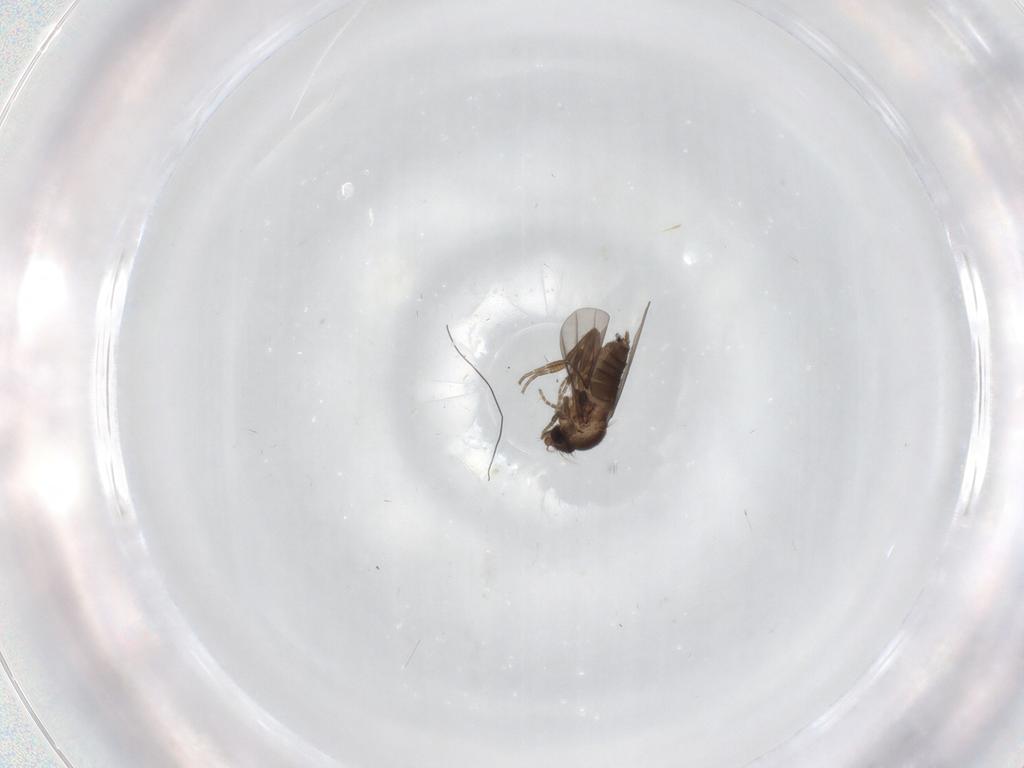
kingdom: Animalia
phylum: Arthropoda
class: Insecta
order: Diptera
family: Phoridae
